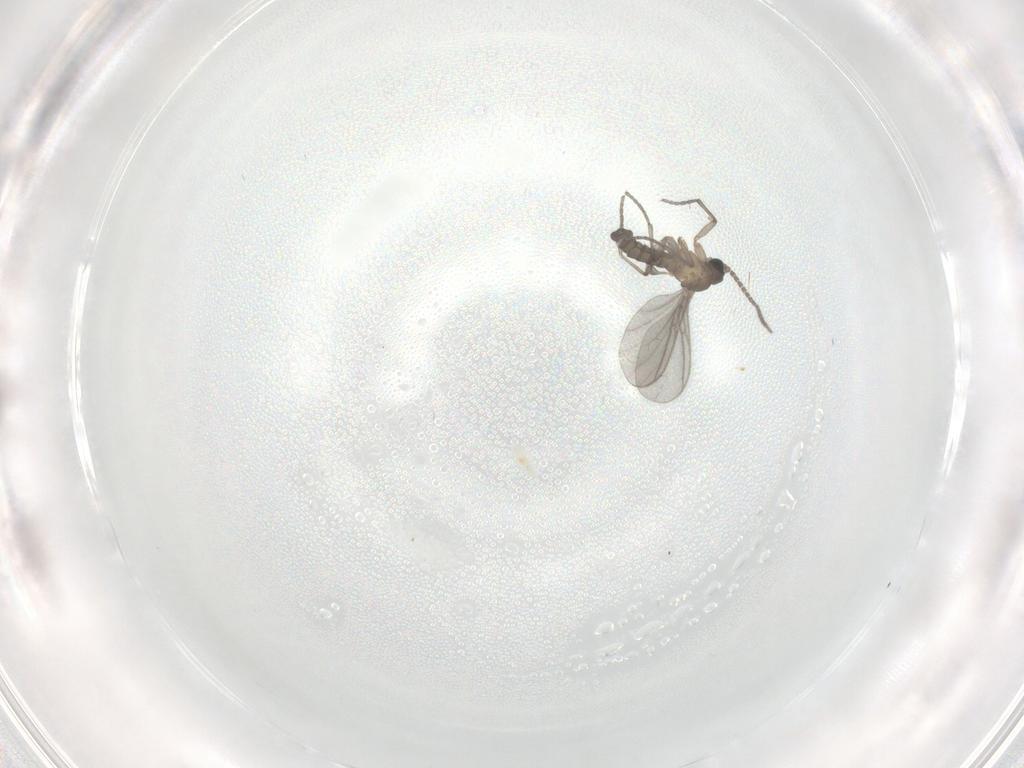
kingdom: Animalia
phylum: Arthropoda
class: Insecta
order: Diptera
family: Sciaridae
